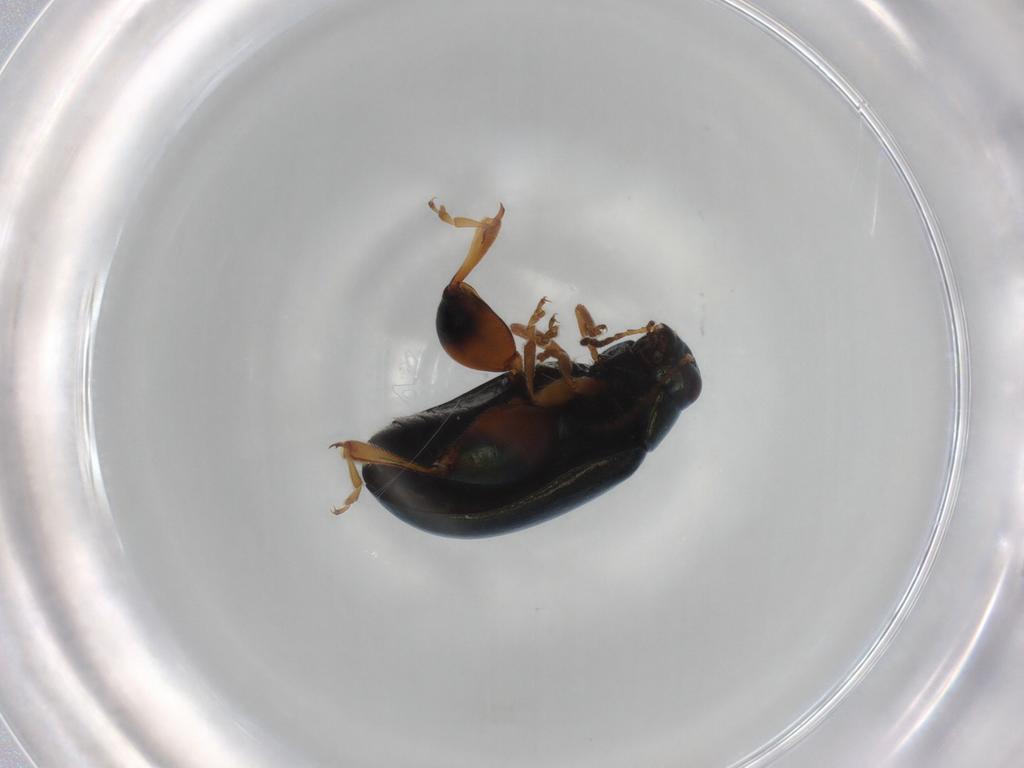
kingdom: Animalia
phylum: Arthropoda
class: Insecta
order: Coleoptera
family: Chrysomelidae
